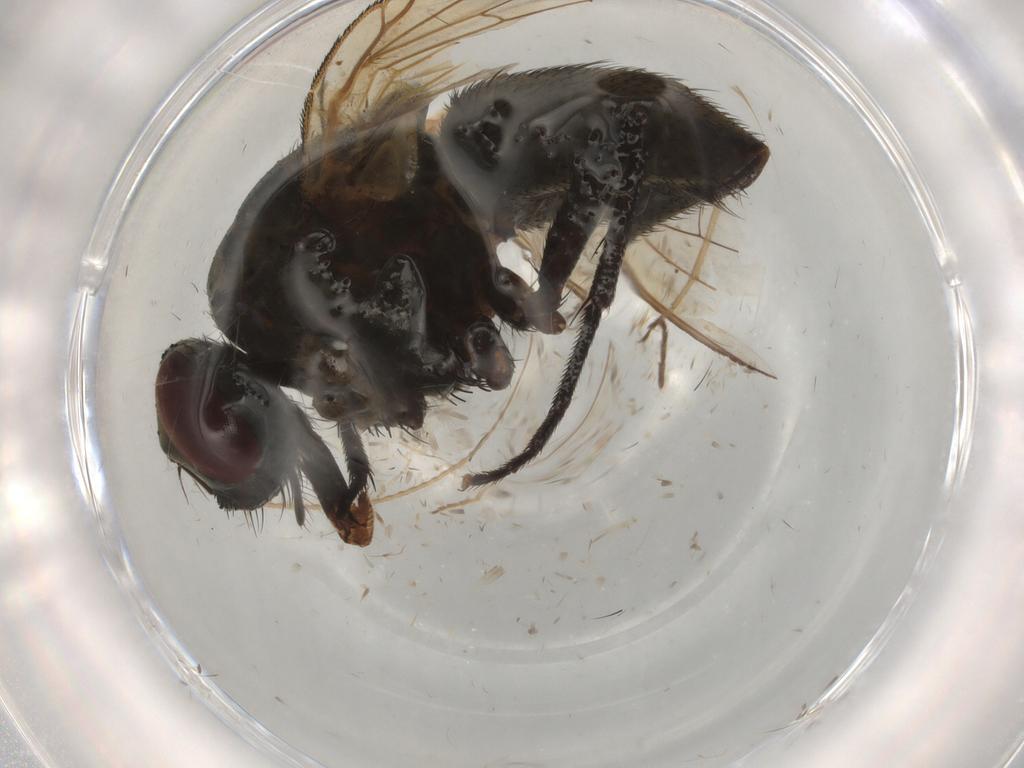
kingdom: Animalia
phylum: Arthropoda
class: Insecta
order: Diptera
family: Muscidae
